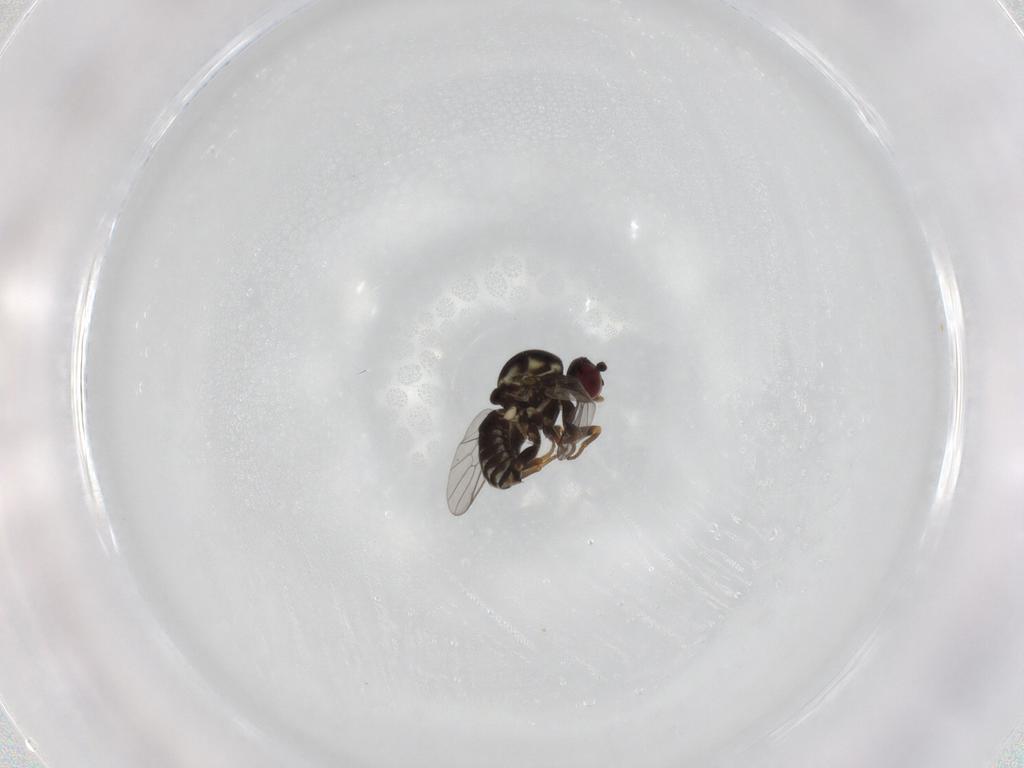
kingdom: Animalia
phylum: Arthropoda
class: Insecta
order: Diptera
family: Bombyliidae
